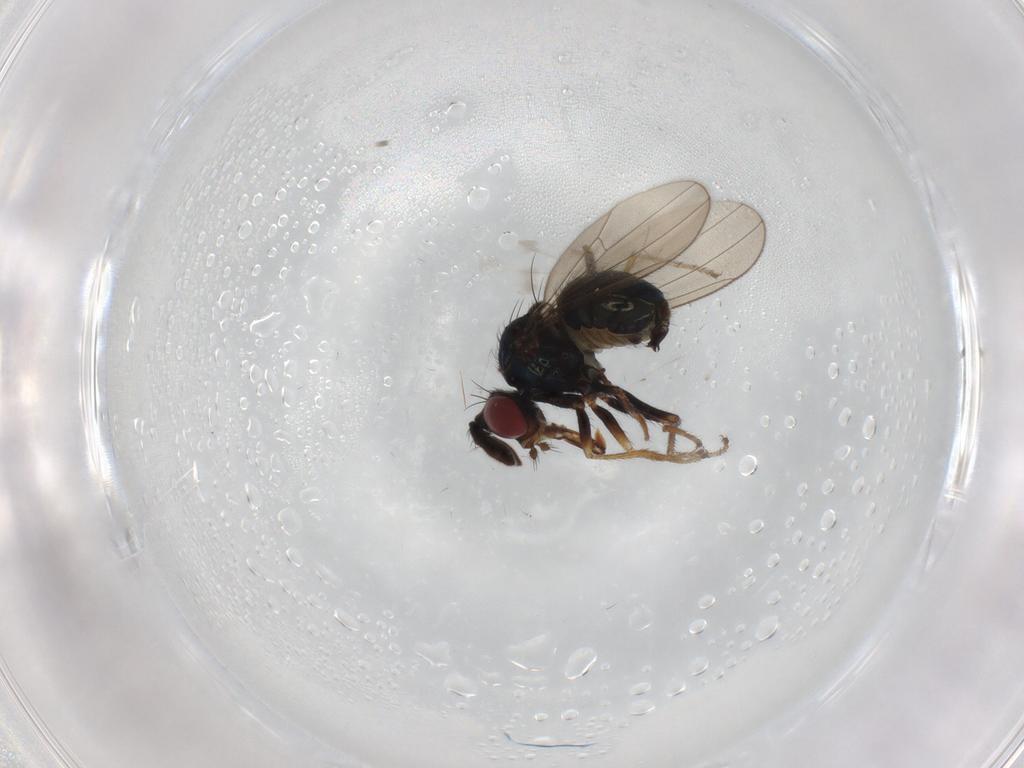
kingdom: Animalia
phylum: Arthropoda
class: Insecta
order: Diptera
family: Ephydridae
